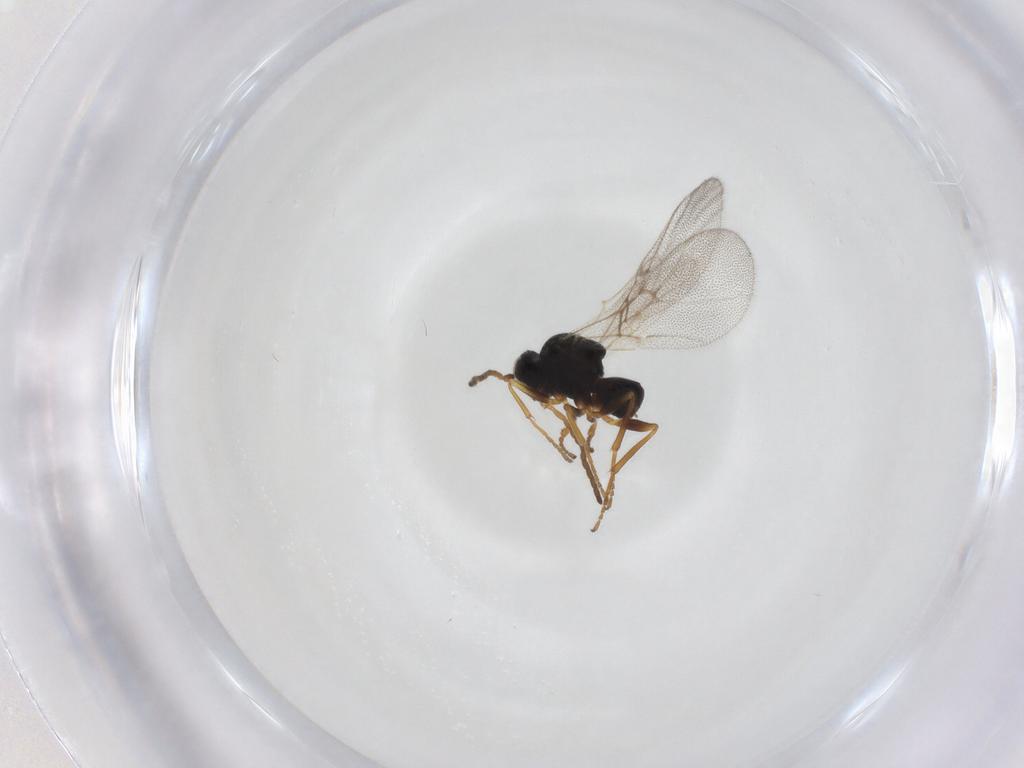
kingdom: Animalia
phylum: Arthropoda
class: Insecta
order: Hymenoptera
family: Cynipidae
